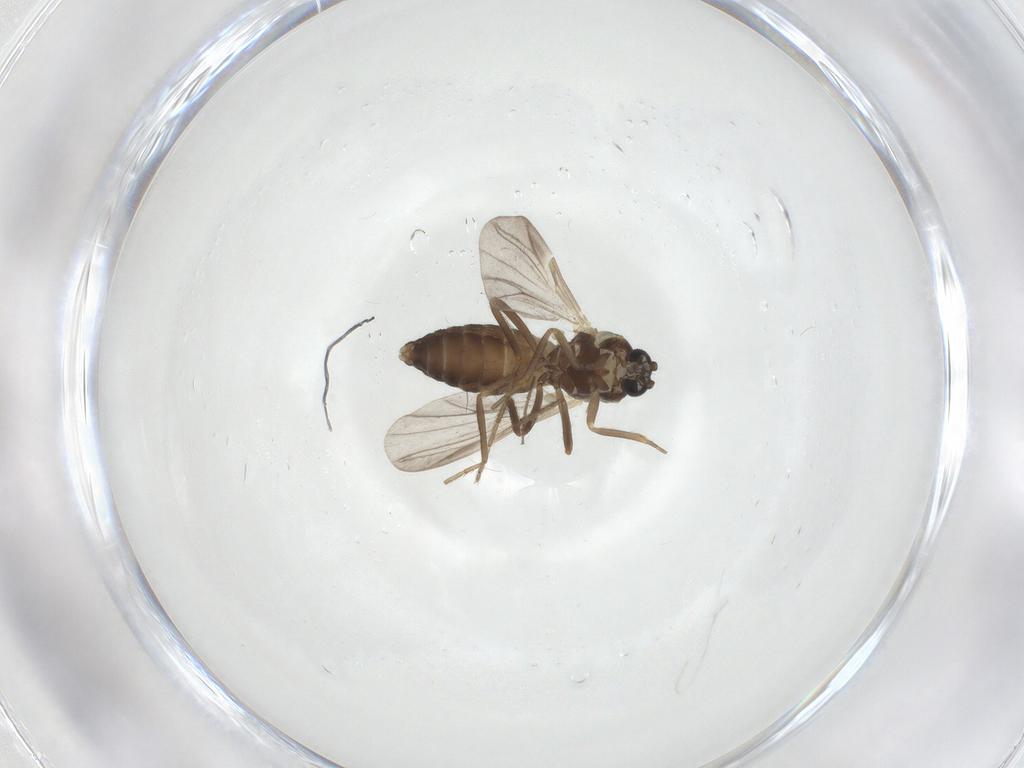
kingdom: Animalia
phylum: Arthropoda
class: Insecta
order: Diptera
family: Ceratopogonidae
